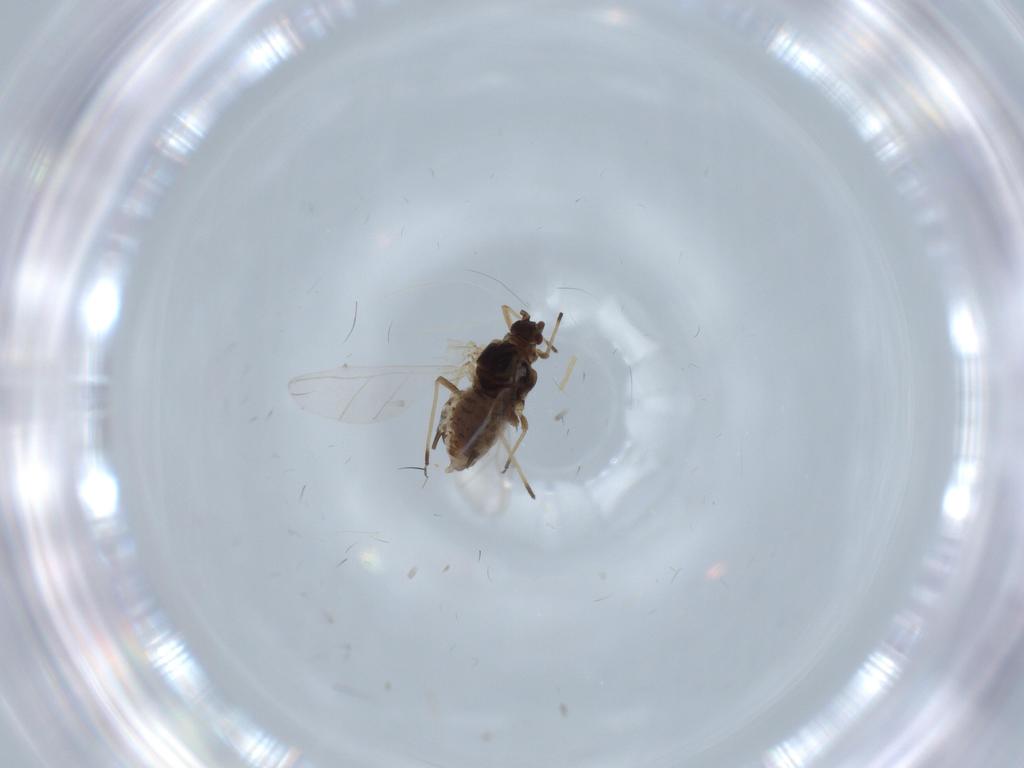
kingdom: Animalia
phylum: Arthropoda
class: Insecta
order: Hemiptera
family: Aphididae
